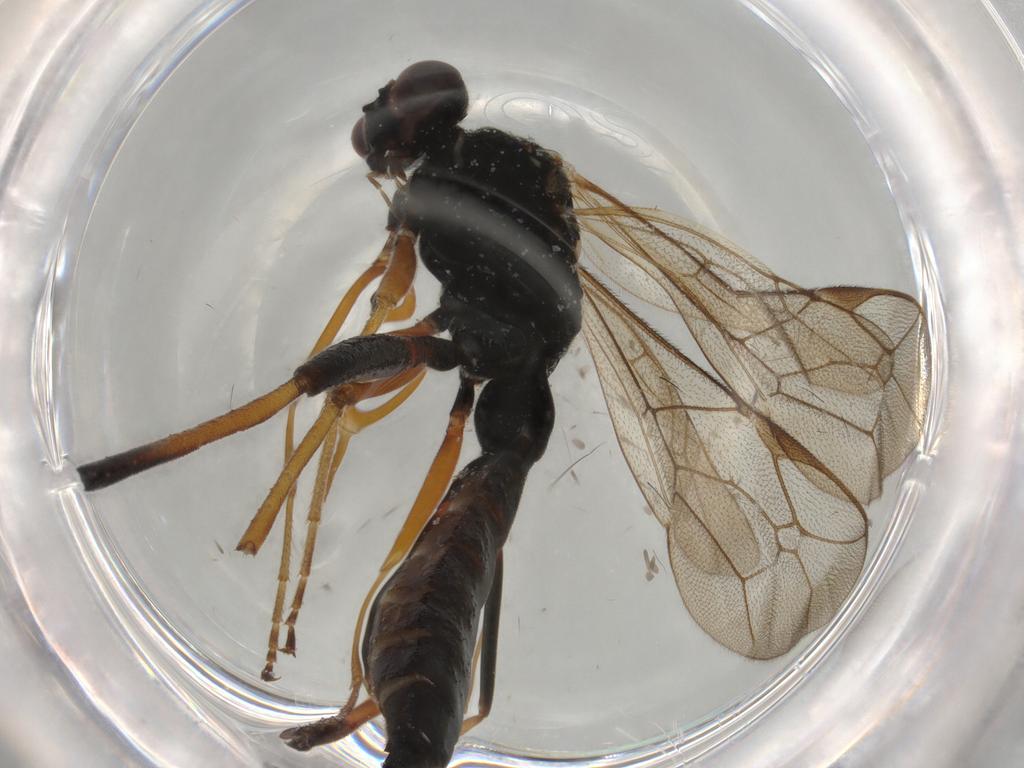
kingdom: Animalia
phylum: Arthropoda
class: Insecta
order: Hymenoptera
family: Ichneumonidae
